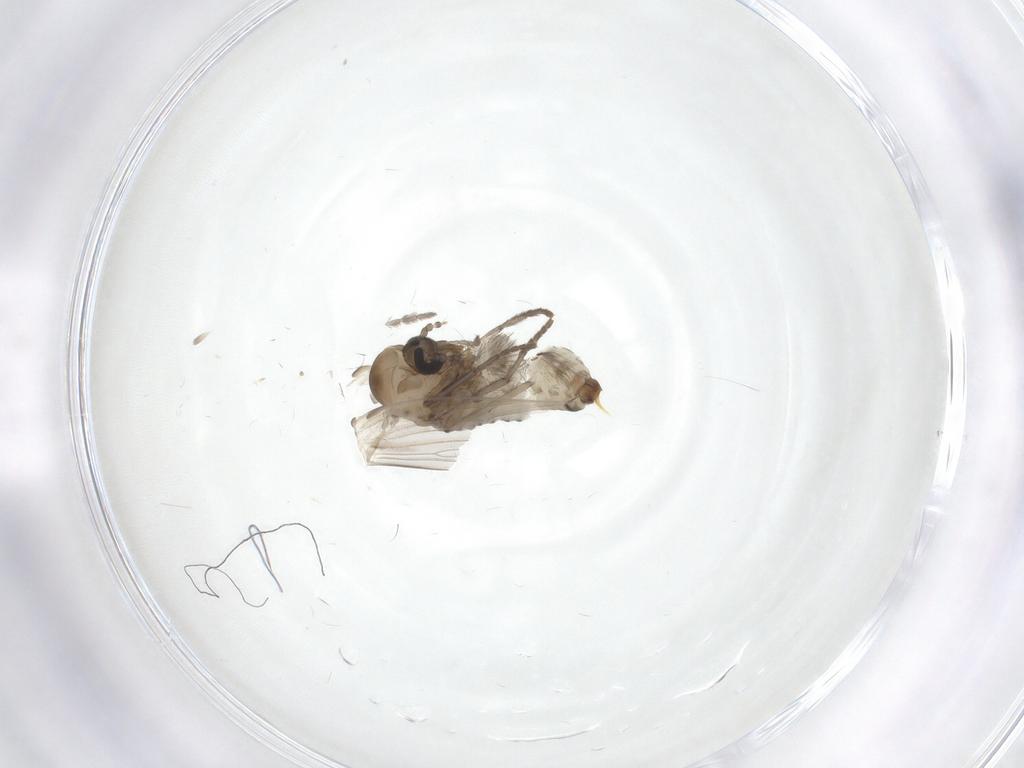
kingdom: Animalia
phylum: Arthropoda
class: Insecta
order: Diptera
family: Psychodidae
